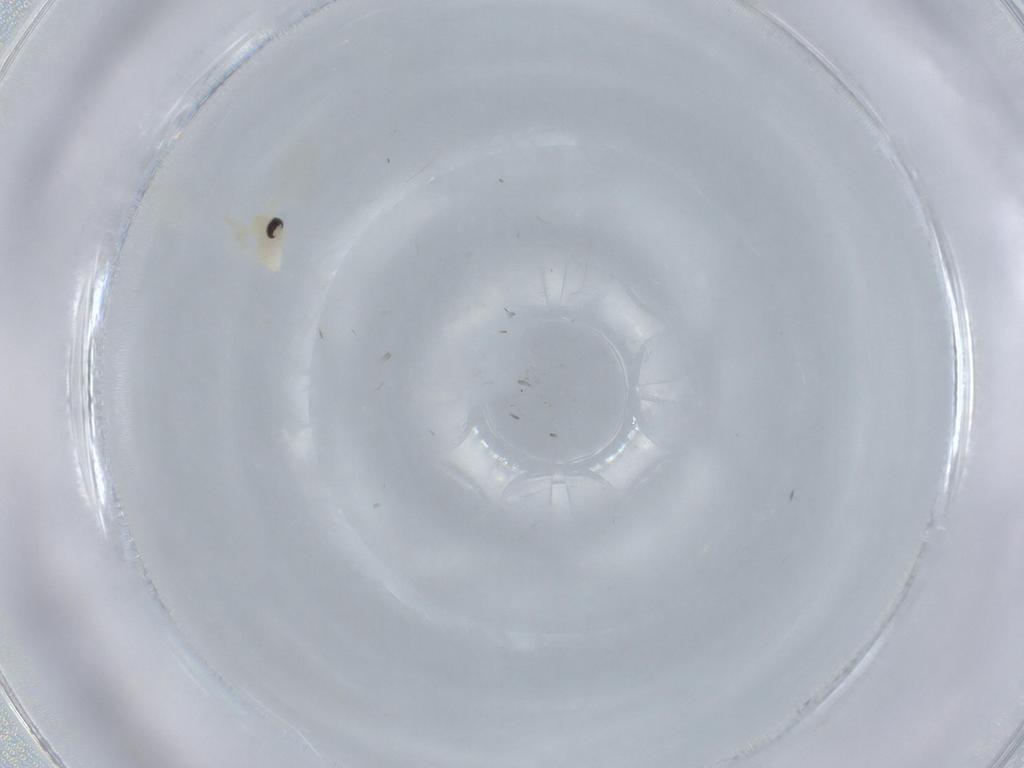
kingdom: Animalia
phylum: Arthropoda
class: Insecta
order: Diptera
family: Cecidomyiidae
